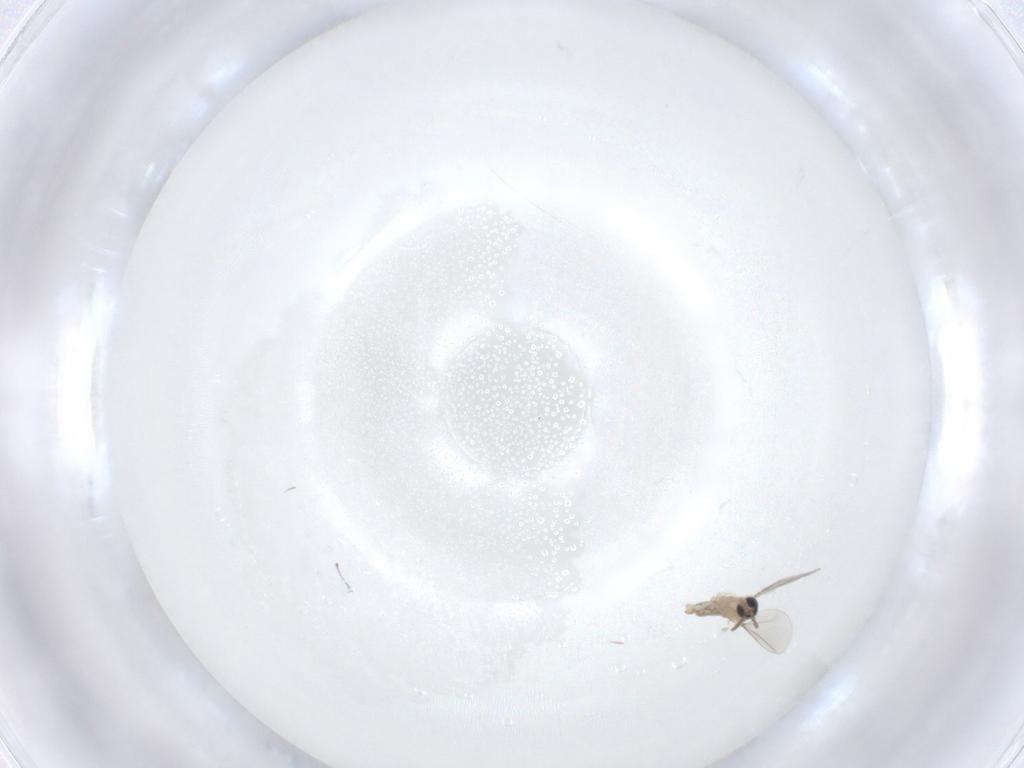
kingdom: Animalia
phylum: Arthropoda
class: Insecta
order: Diptera
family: Cecidomyiidae
